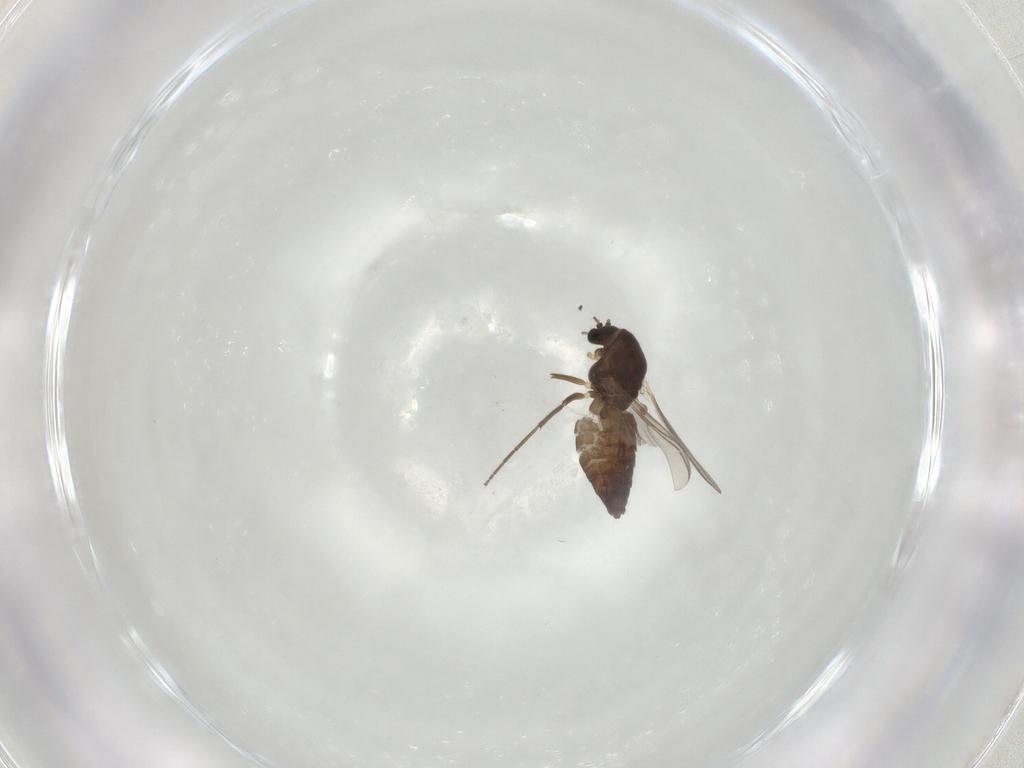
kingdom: Animalia
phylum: Arthropoda
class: Insecta
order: Diptera
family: Chironomidae
